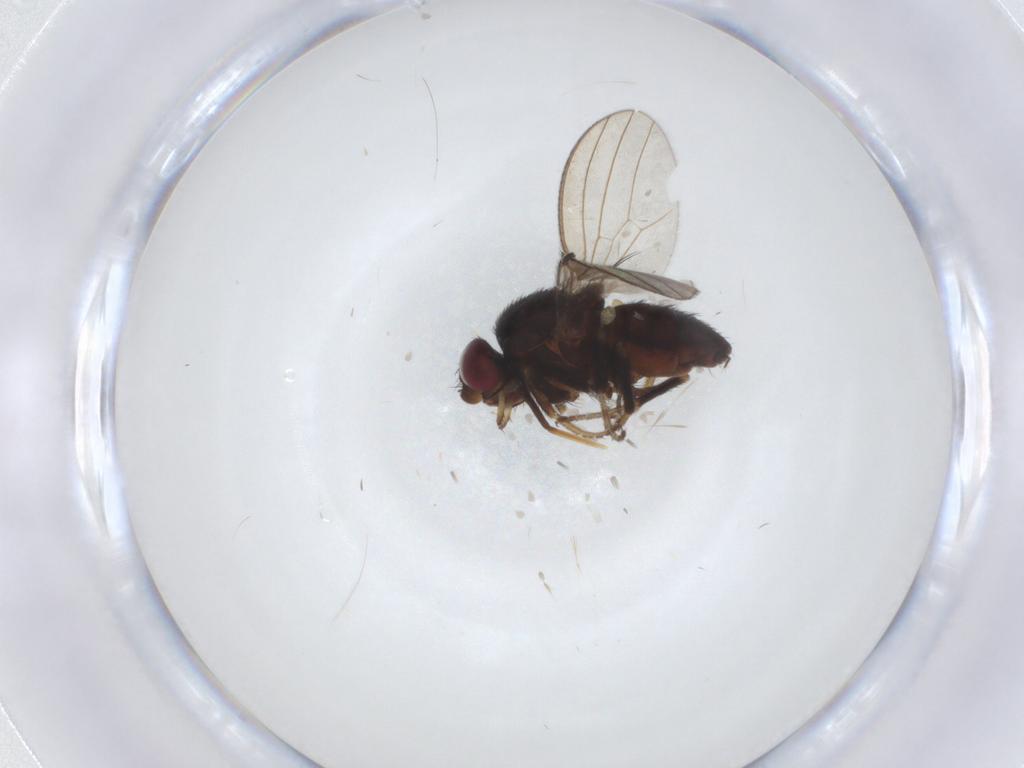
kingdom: Animalia
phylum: Arthropoda
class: Insecta
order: Diptera
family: Milichiidae
